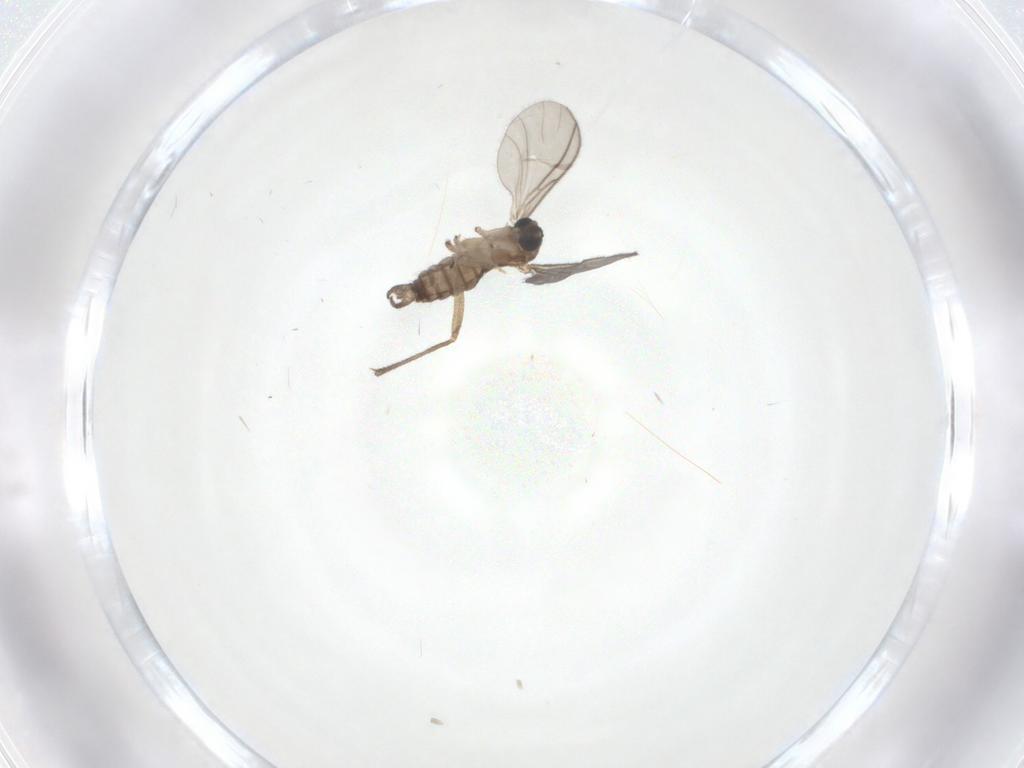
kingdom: Animalia
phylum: Arthropoda
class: Insecta
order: Diptera
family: Sciaridae
